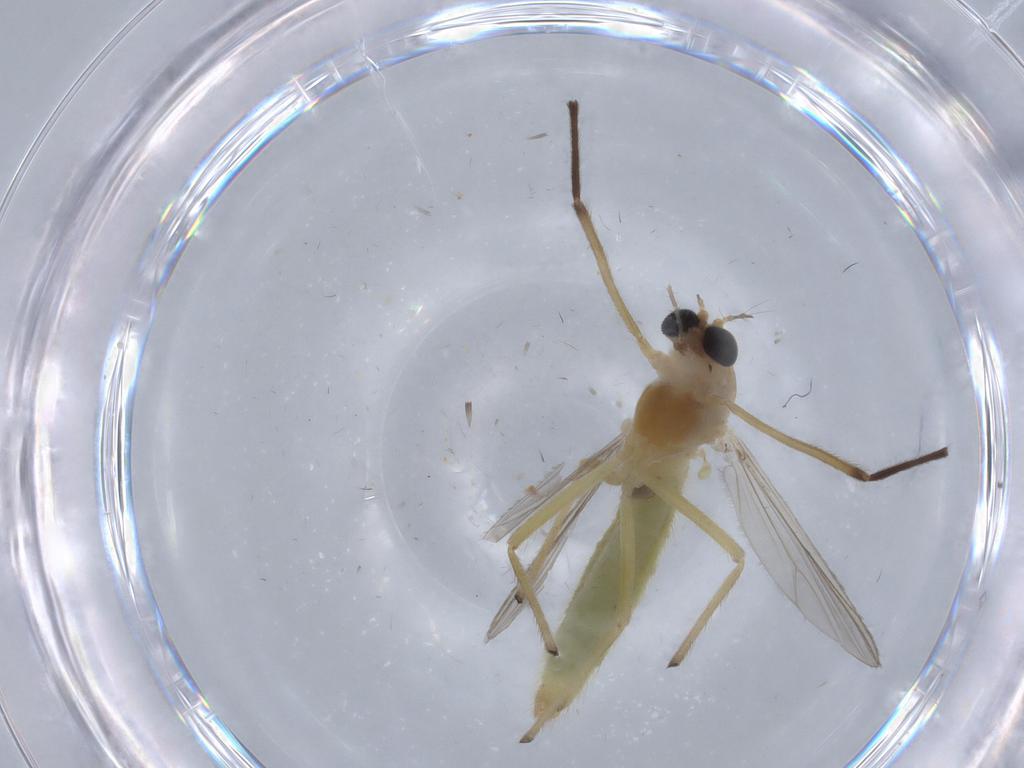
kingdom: Animalia
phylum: Arthropoda
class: Insecta
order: Diptera
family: Chironomidae
